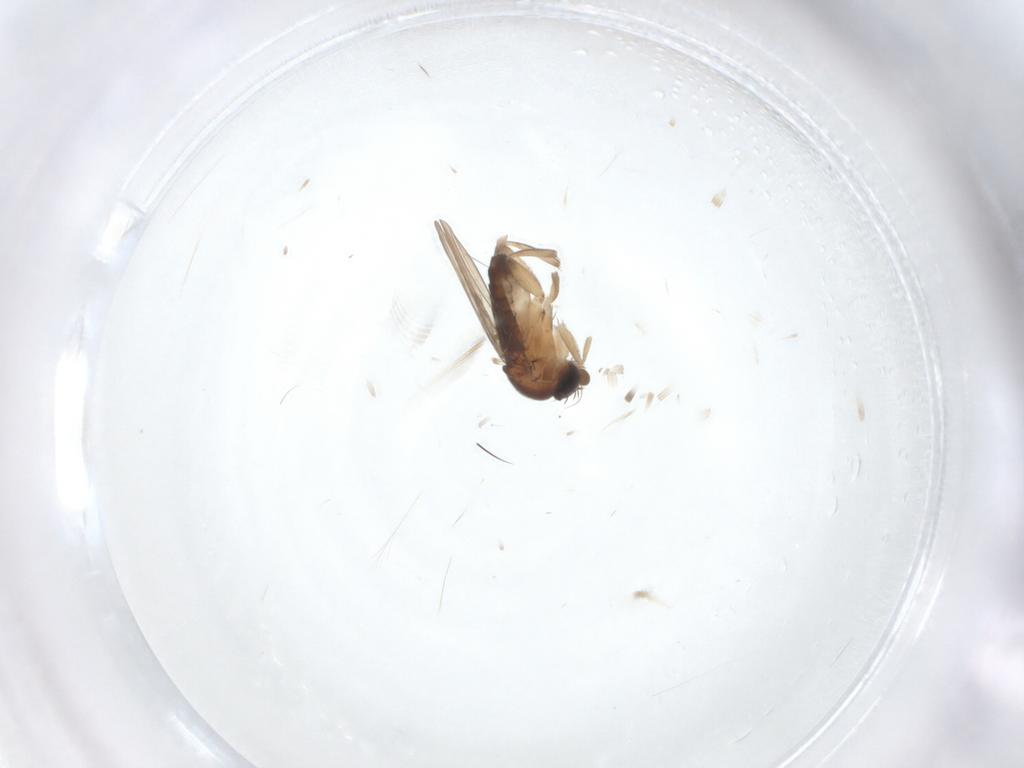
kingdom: Animalia
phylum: Arthropoda
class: Insecta
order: Diptera
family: Phoridae
